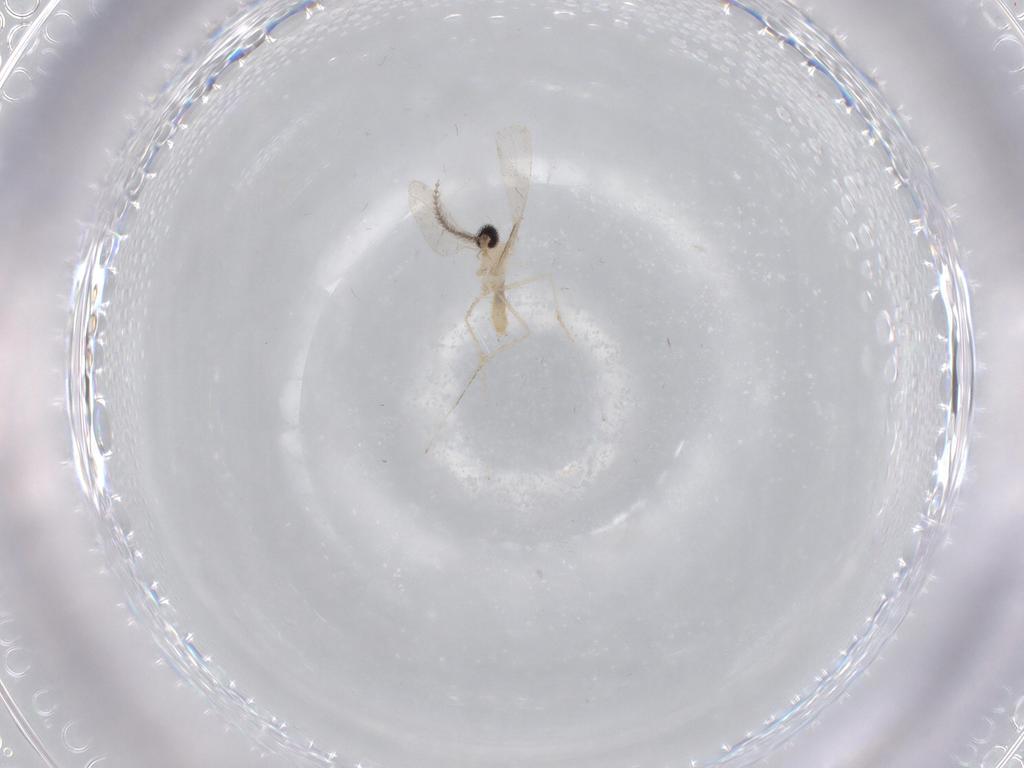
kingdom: Animalia
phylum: Arthropoda
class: Insecta
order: Diptera
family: Cecidomyiidae
